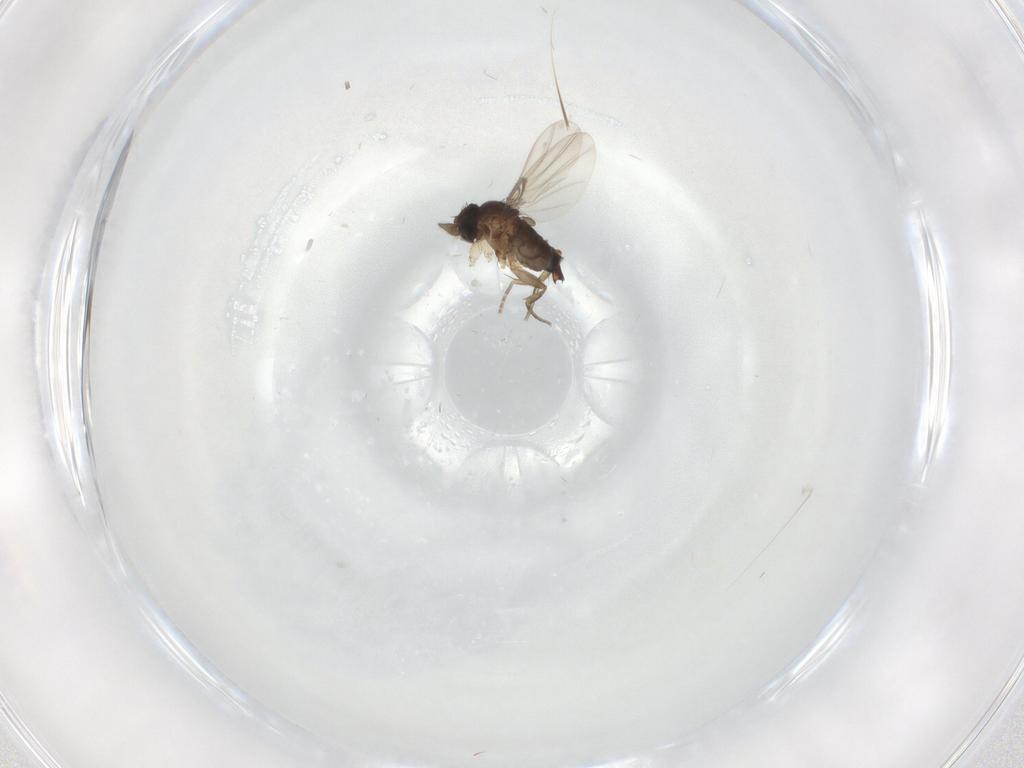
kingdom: Animalia
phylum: Arthropoda
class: Insecta
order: Diptera
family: Phoridae
